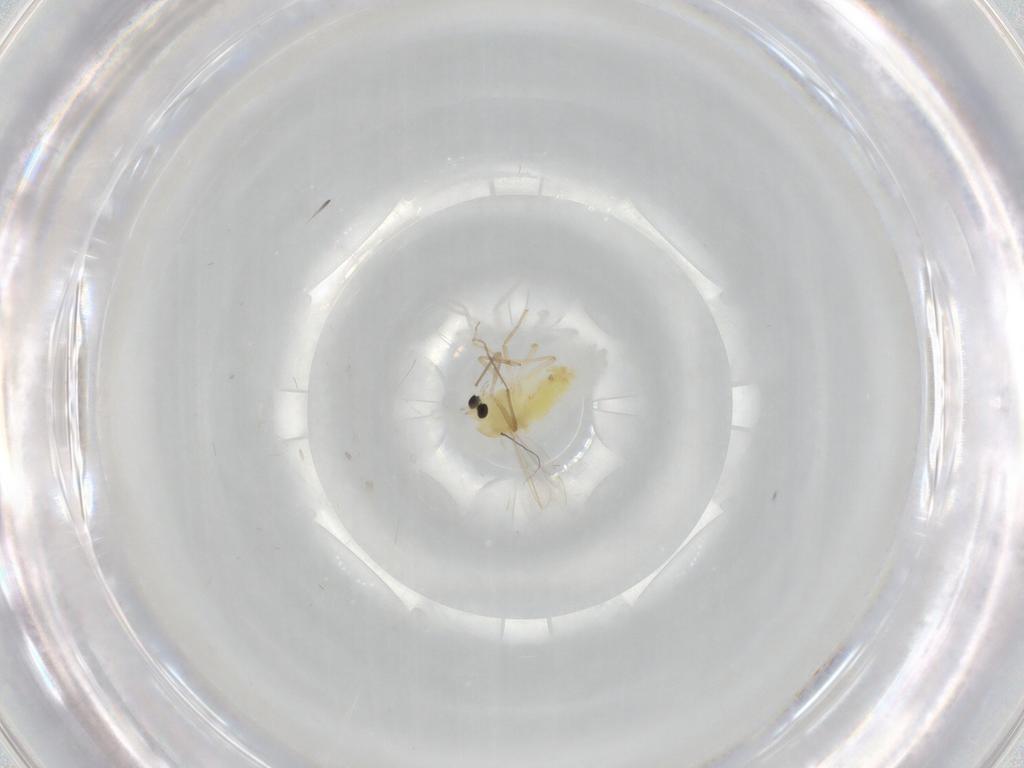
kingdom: Animalia
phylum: Arthropoda
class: Insecta
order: Diptera
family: Chironomidae
